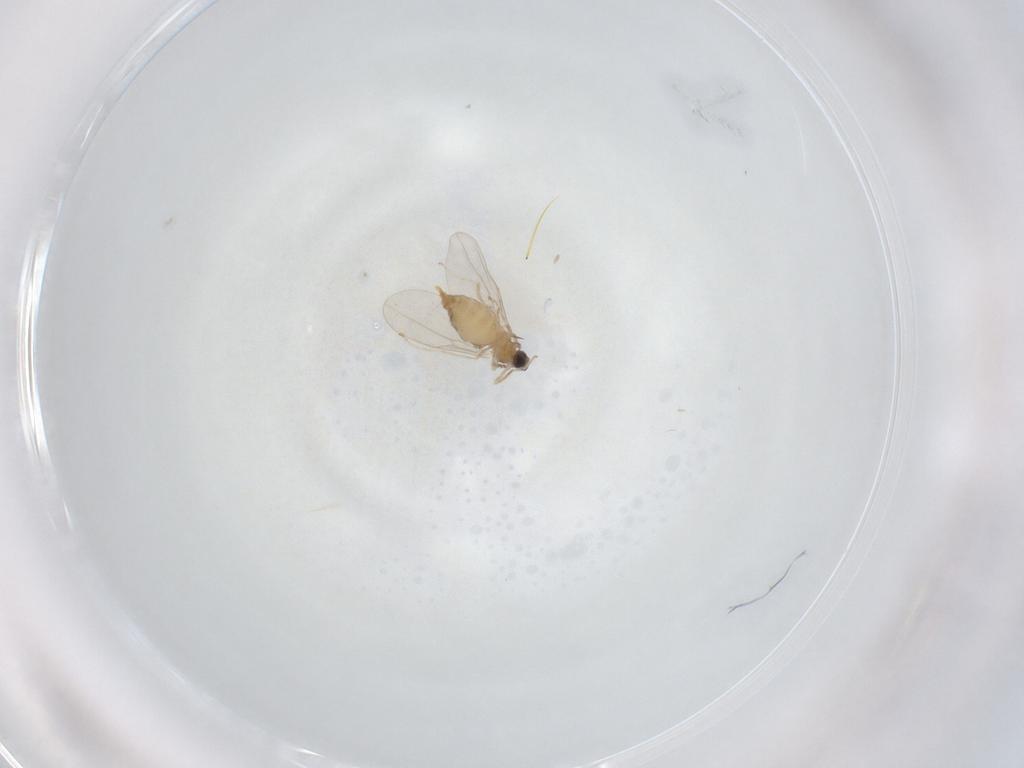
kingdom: Animalia
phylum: Arthropoda
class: Insecta
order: Diptera
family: Cecidomyiidae
